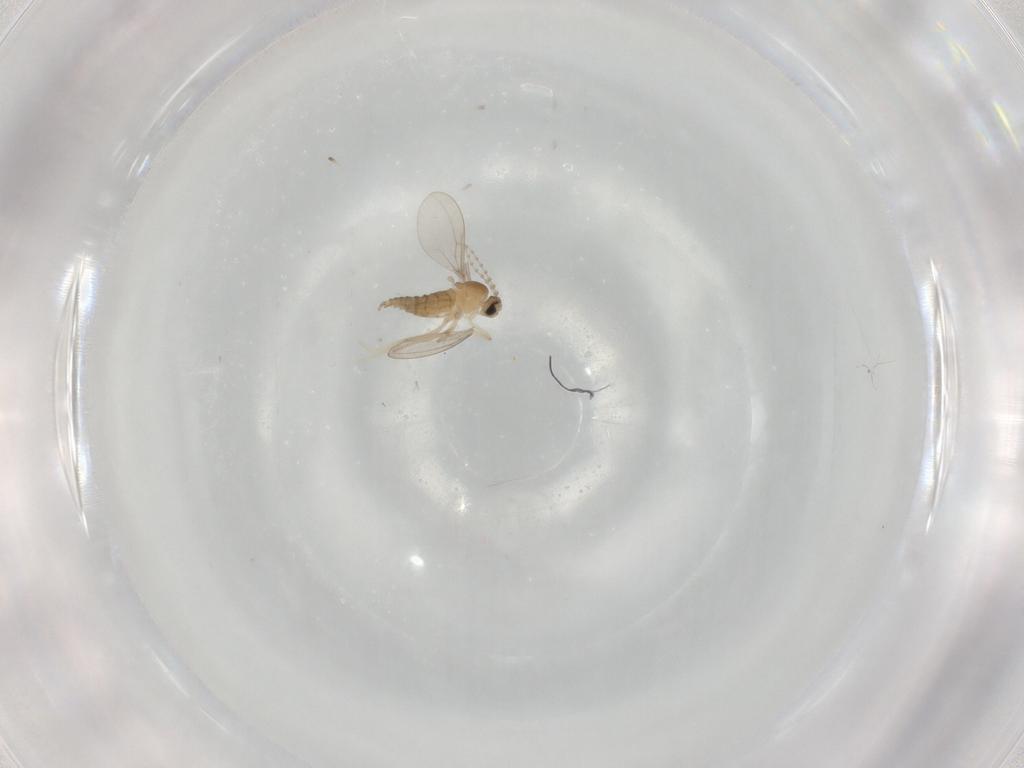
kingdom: Animalia
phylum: Arthropoda
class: Insecta
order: Diptera
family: Cecidomyiidae
